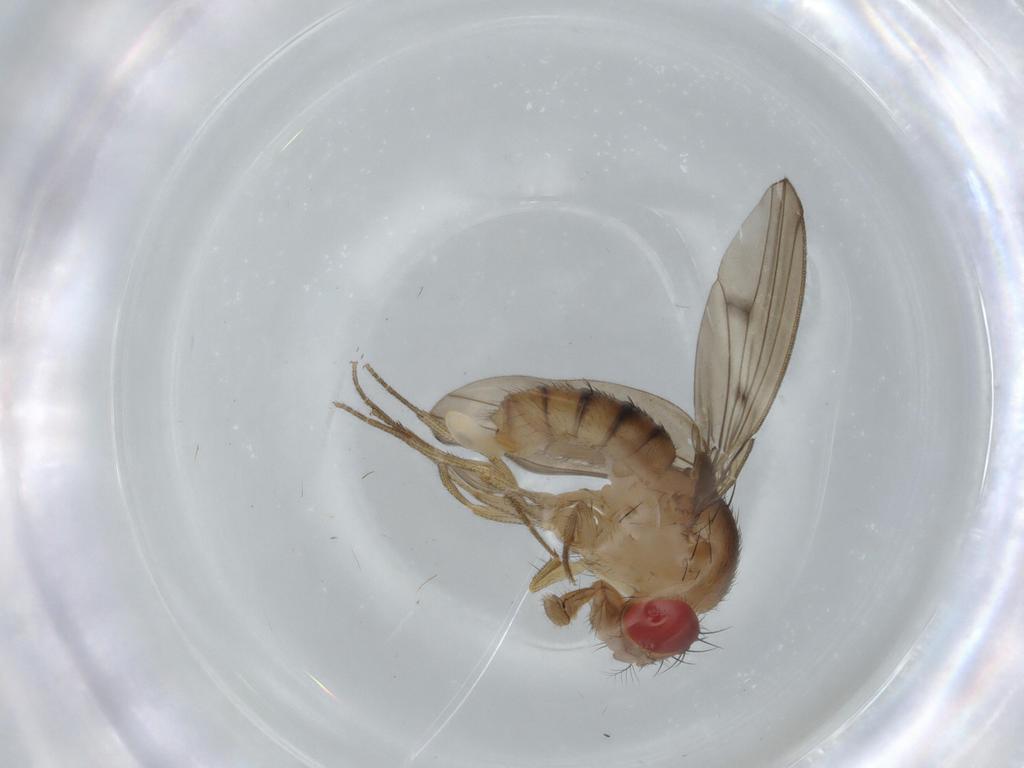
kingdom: Animalia
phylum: Arthropoda
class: Insecta
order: Diptera
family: Drosophilidae
